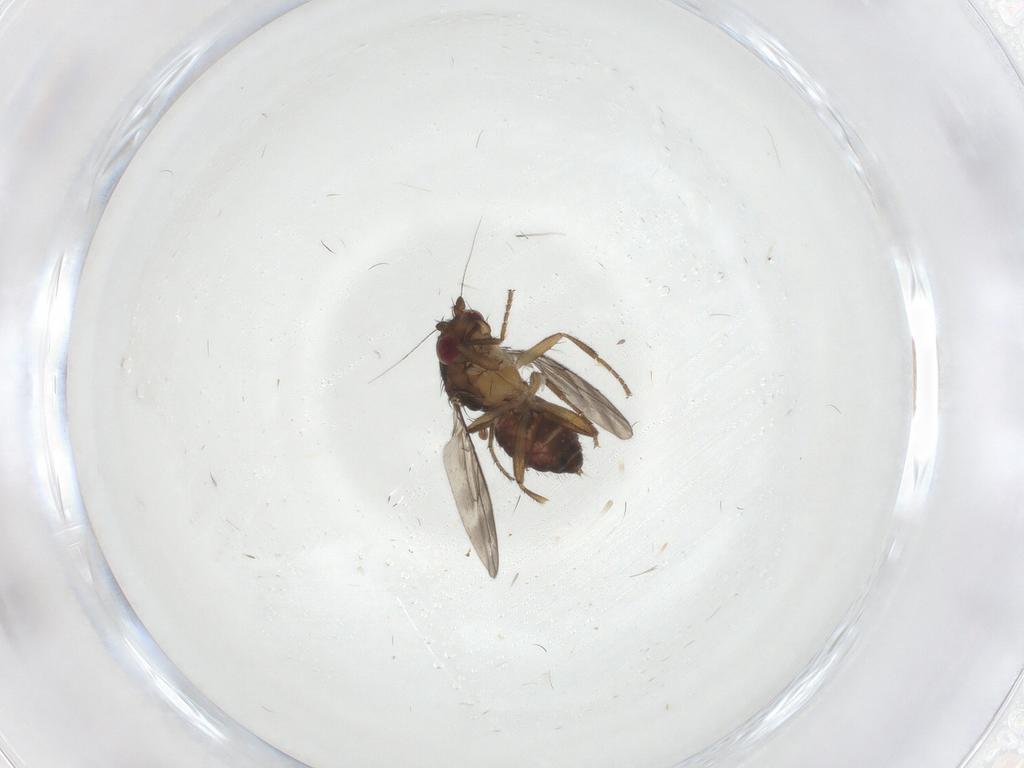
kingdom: Animalia
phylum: Arthropoda
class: Insecta
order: Diptera
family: Sphaeroceridae
